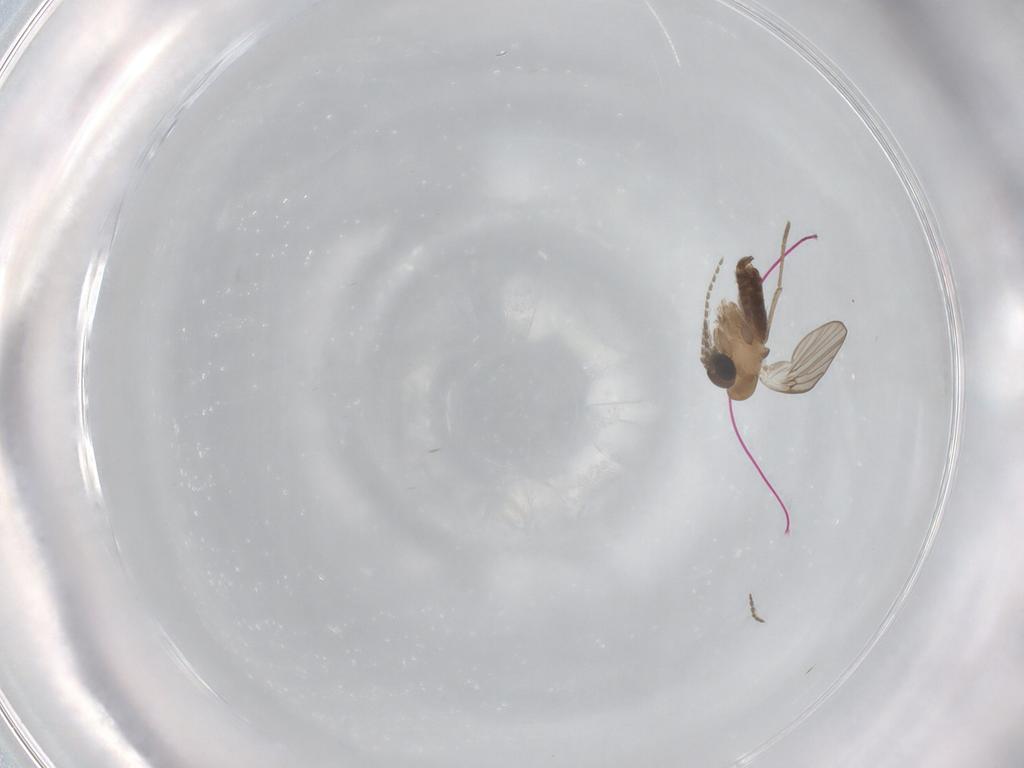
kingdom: Animalia
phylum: Arthropoda
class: Insecta
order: Diptera
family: Psychodidae
